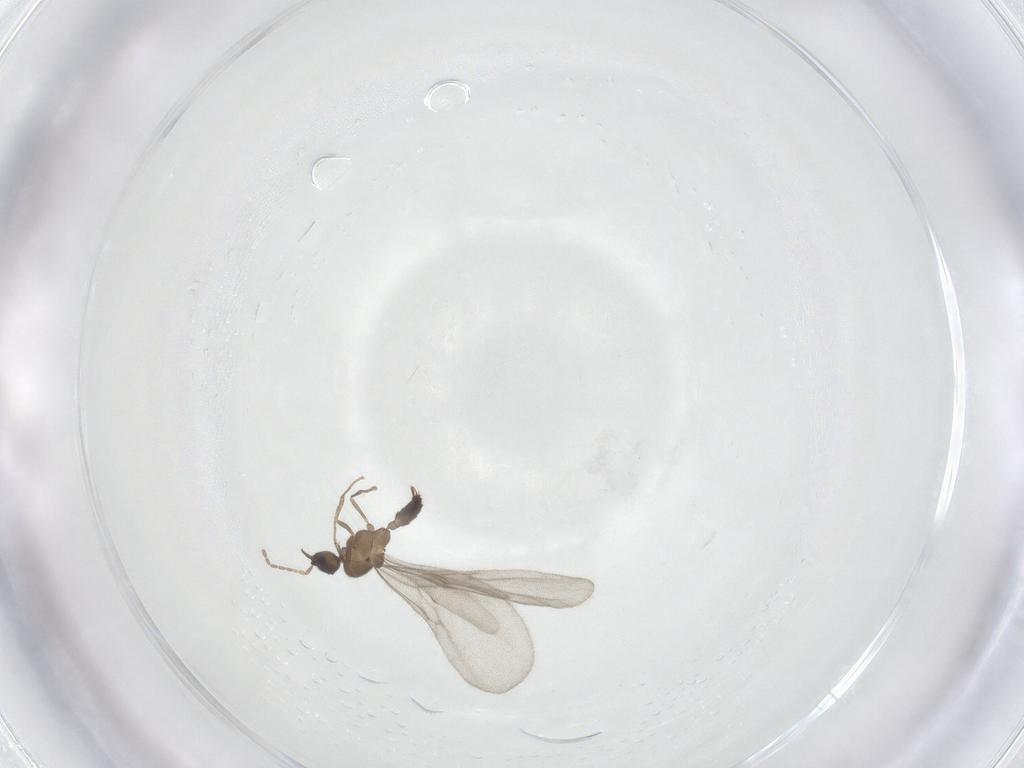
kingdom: Animalia
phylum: Arthropoda
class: Insecta
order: Hymenoptera
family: Formicidae
